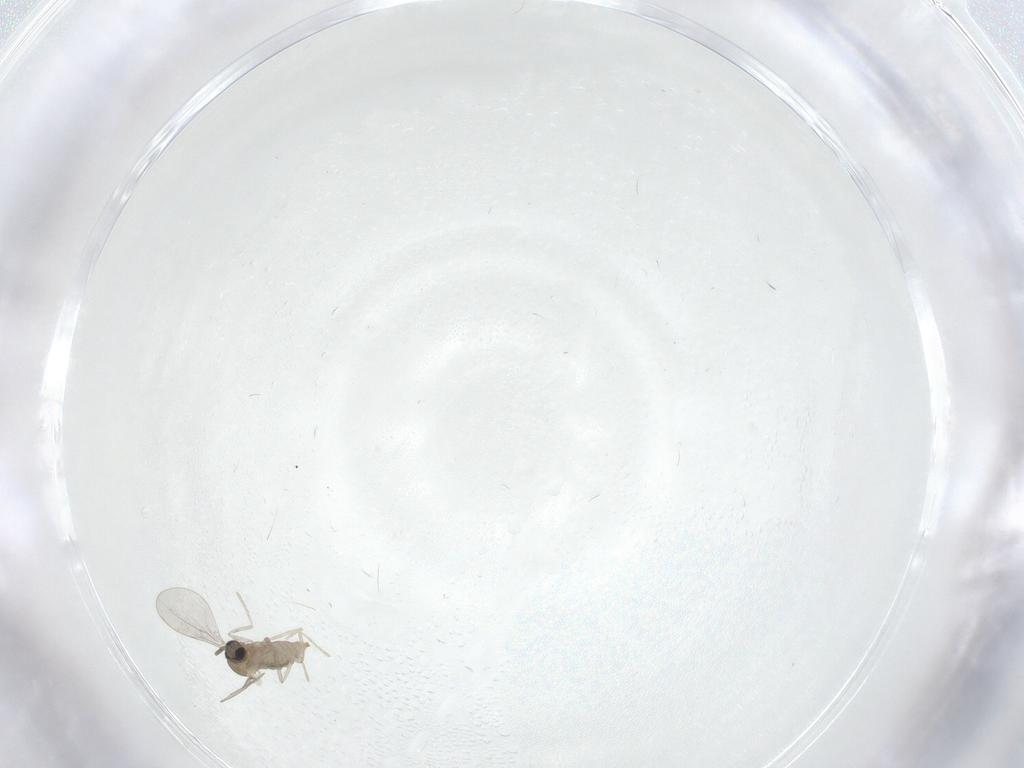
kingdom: Animalia
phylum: Arthropoda
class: Insecta
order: Diptera
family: Cecidomyiidae
